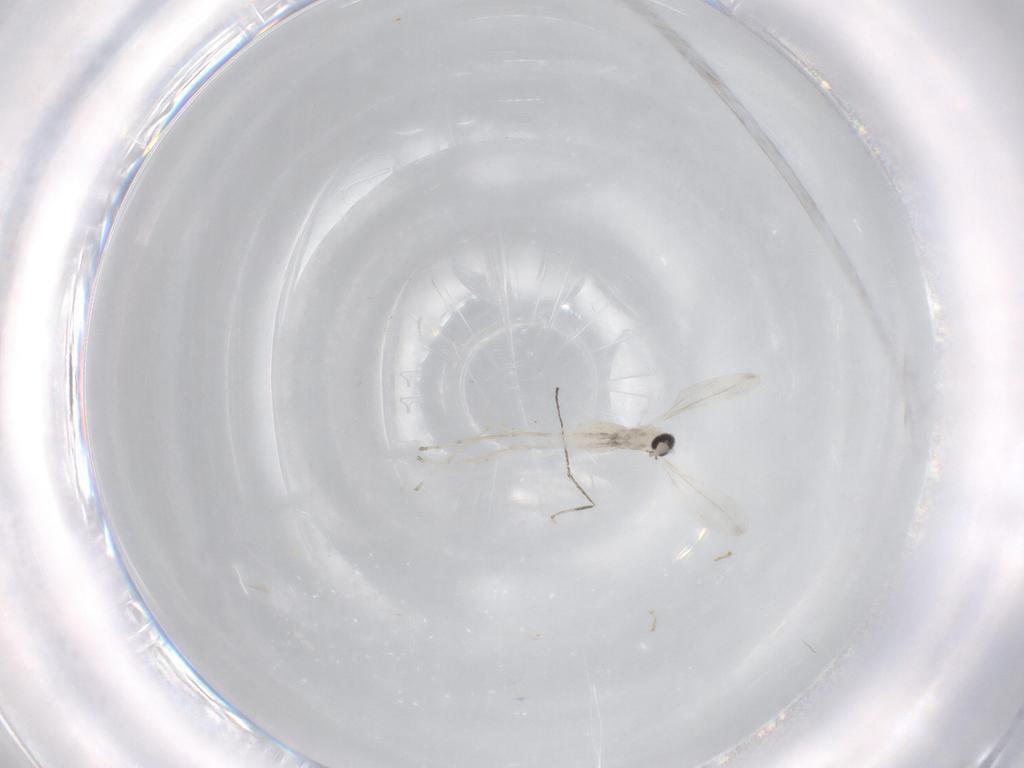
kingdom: Animalia
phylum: Arthropoda
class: Insecta
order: Diptera
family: Cecidomyiidae
